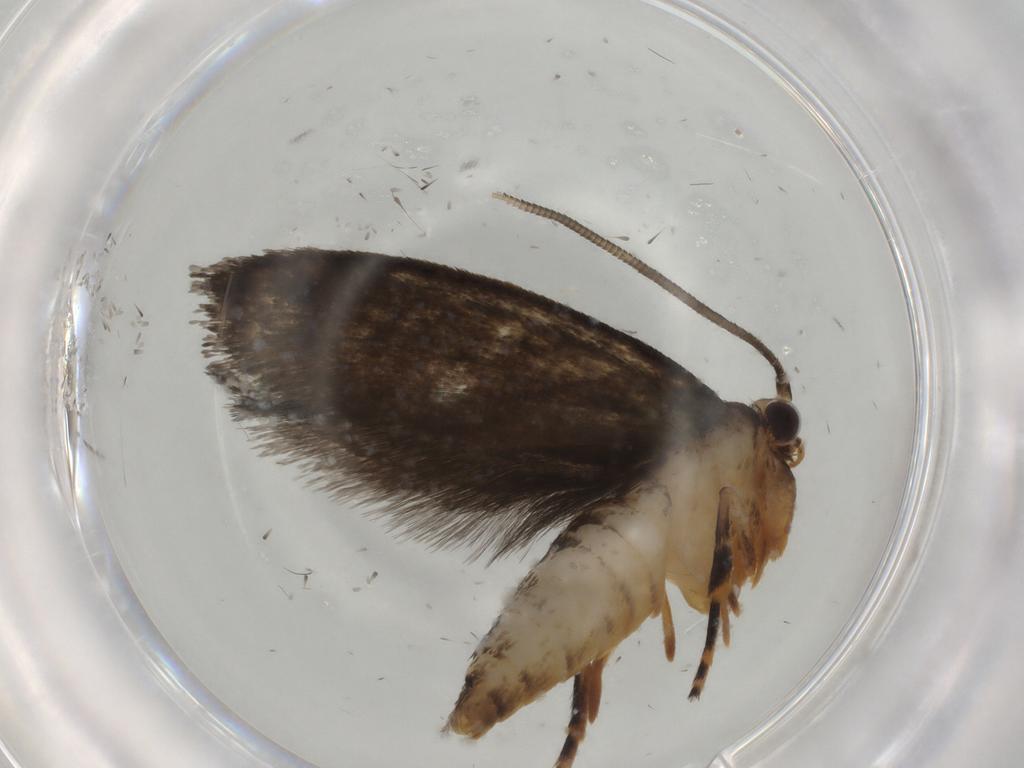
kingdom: Animalia
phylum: Arthropoda
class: Insecta
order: Lepidoptera
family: Tineidae
